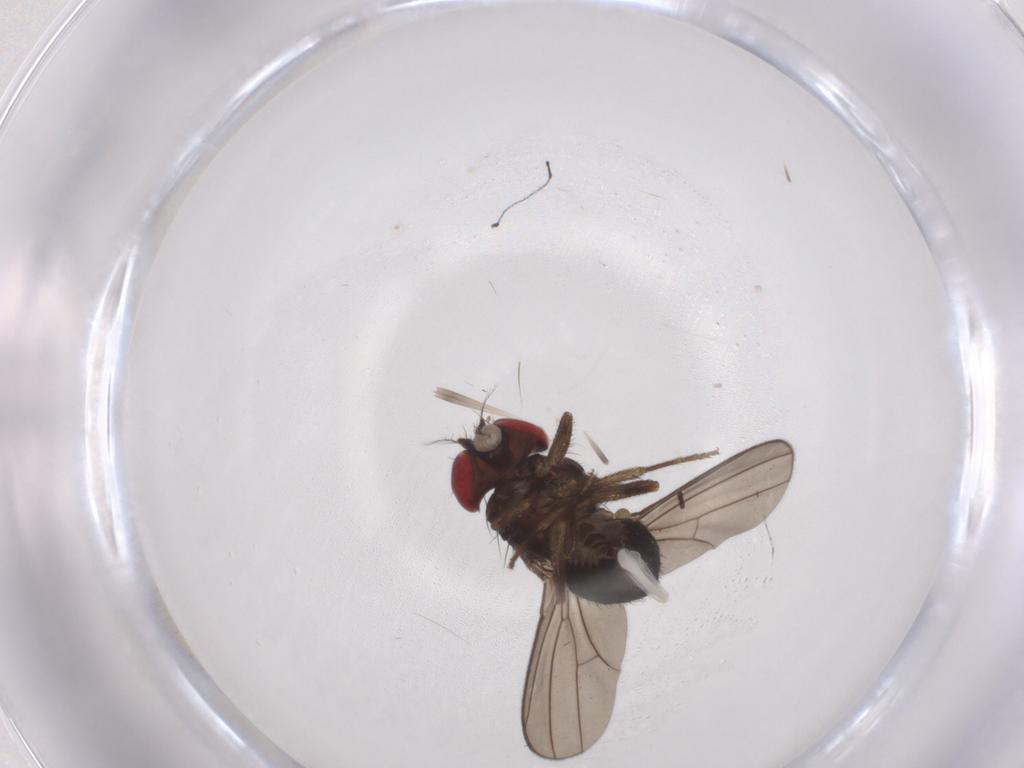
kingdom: Animalia
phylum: Arthropoda
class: Insecta
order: Diptera
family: Drosophilidae
